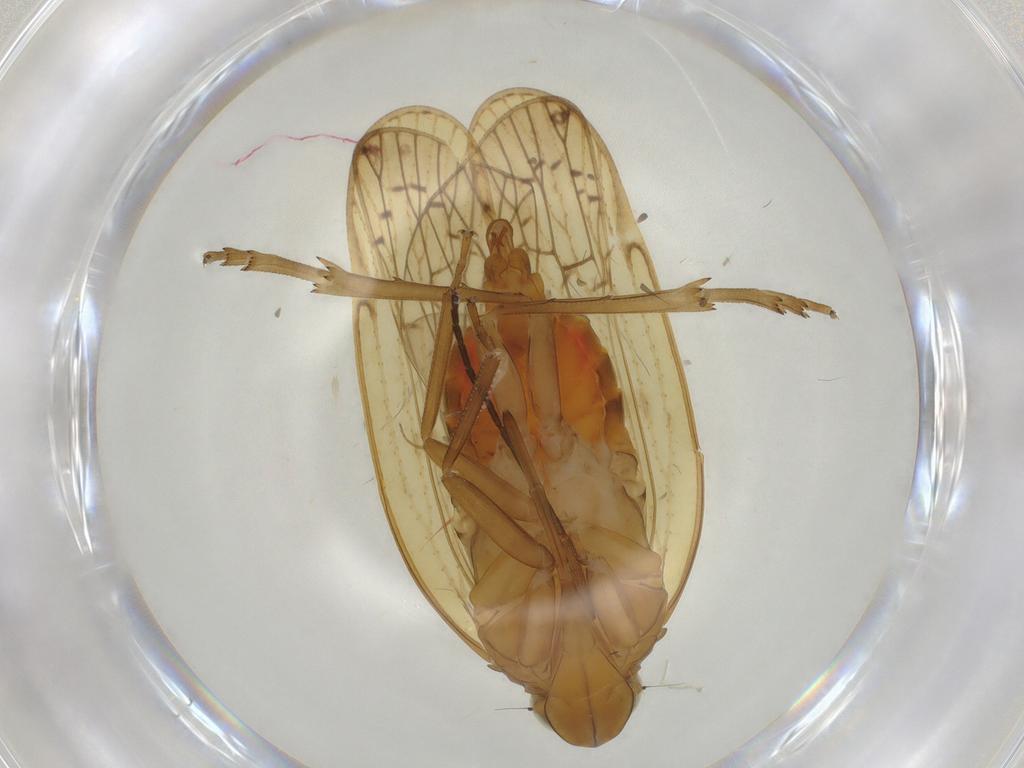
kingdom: Animalia
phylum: Arthropoda
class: Insecta
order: Hemiptera
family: Cixiidae
